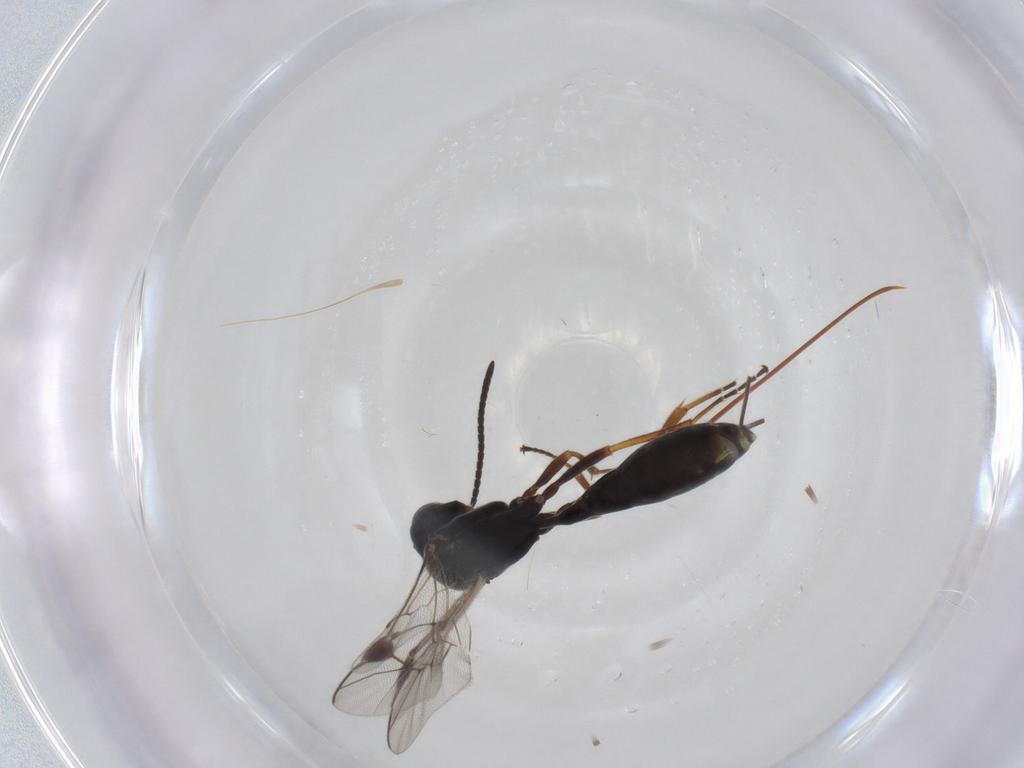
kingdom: Animalia
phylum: Arthropoda
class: Insecta
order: Hymenoptera
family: Ichneumonidae
